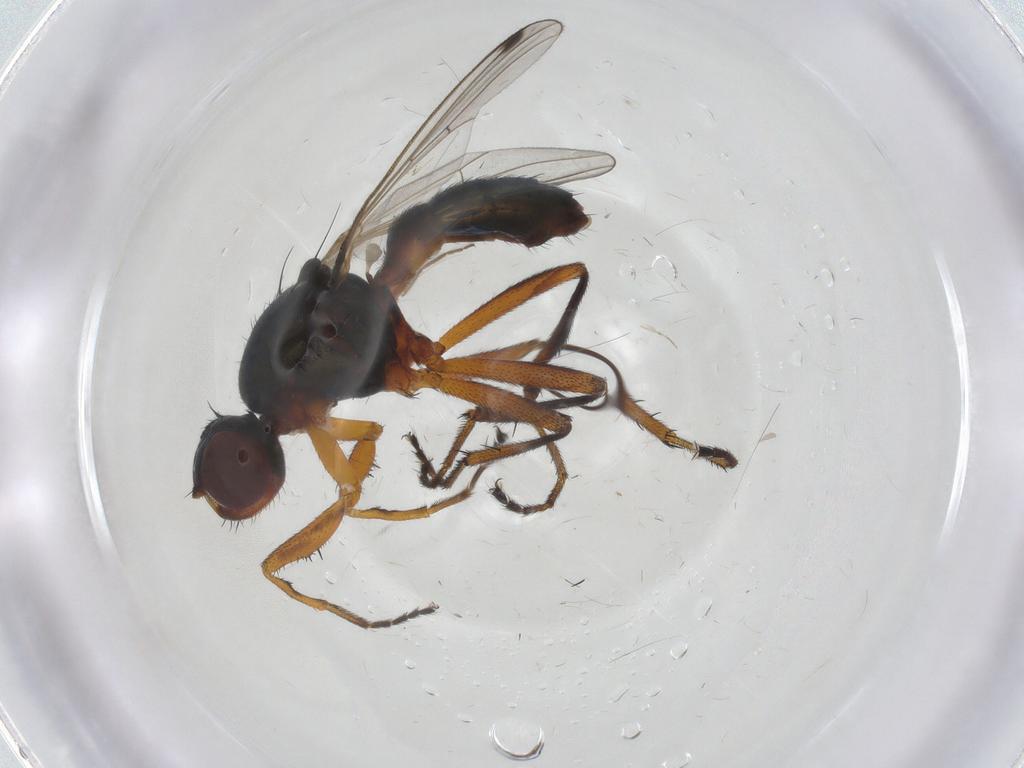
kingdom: Animalia
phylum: Arthropoda
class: Insecta
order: Diptera
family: Sepsidae
